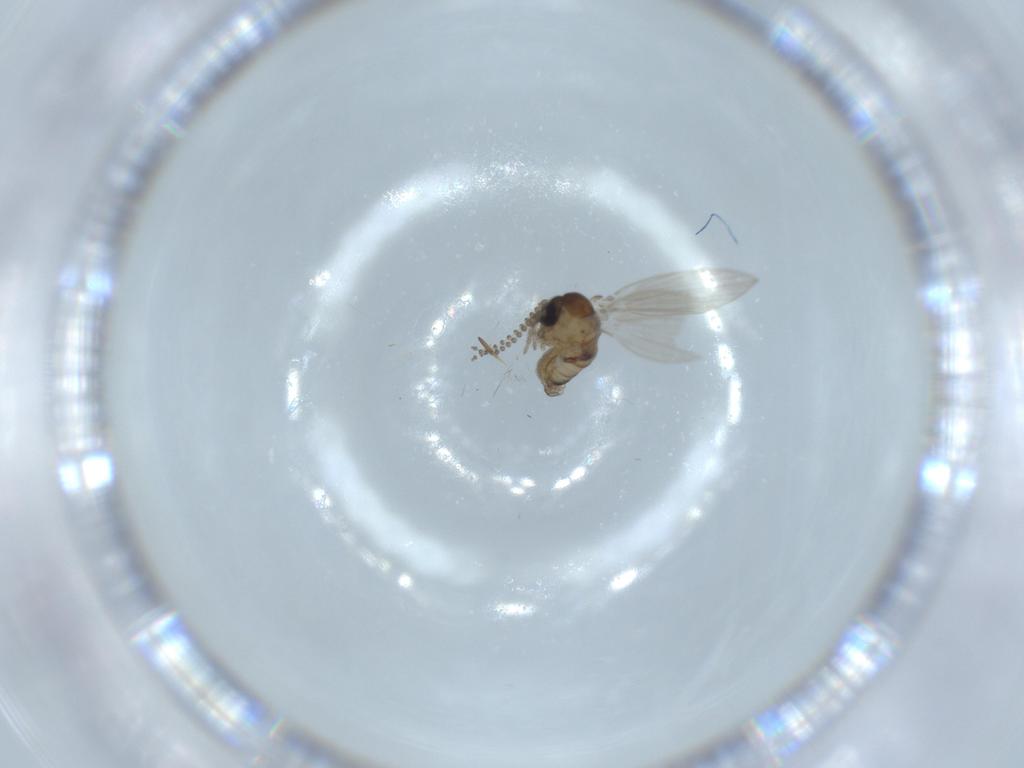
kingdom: Animalia
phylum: Arthropoda
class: Insecta
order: Diptera
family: Psychodidae
